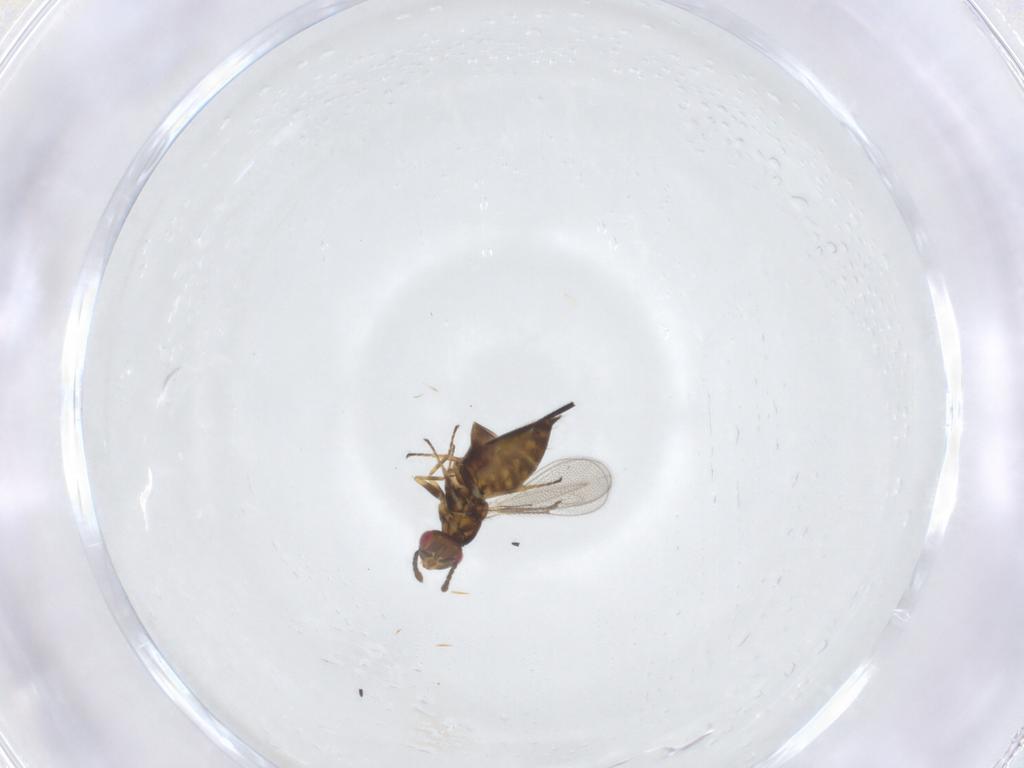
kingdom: Animalia
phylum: Arthropoda
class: Insecta
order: Hymenoptera
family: Eulophidae
